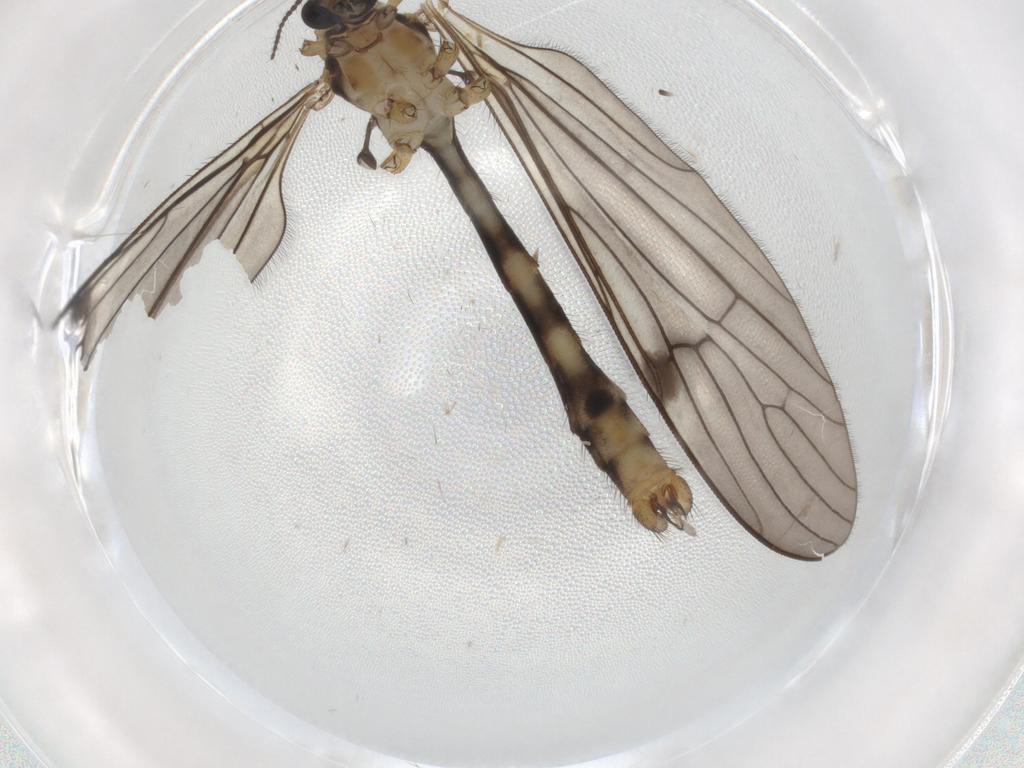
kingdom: Animalia
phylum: Arthropoda
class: Insecta
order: Diptera
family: Limoniidae
